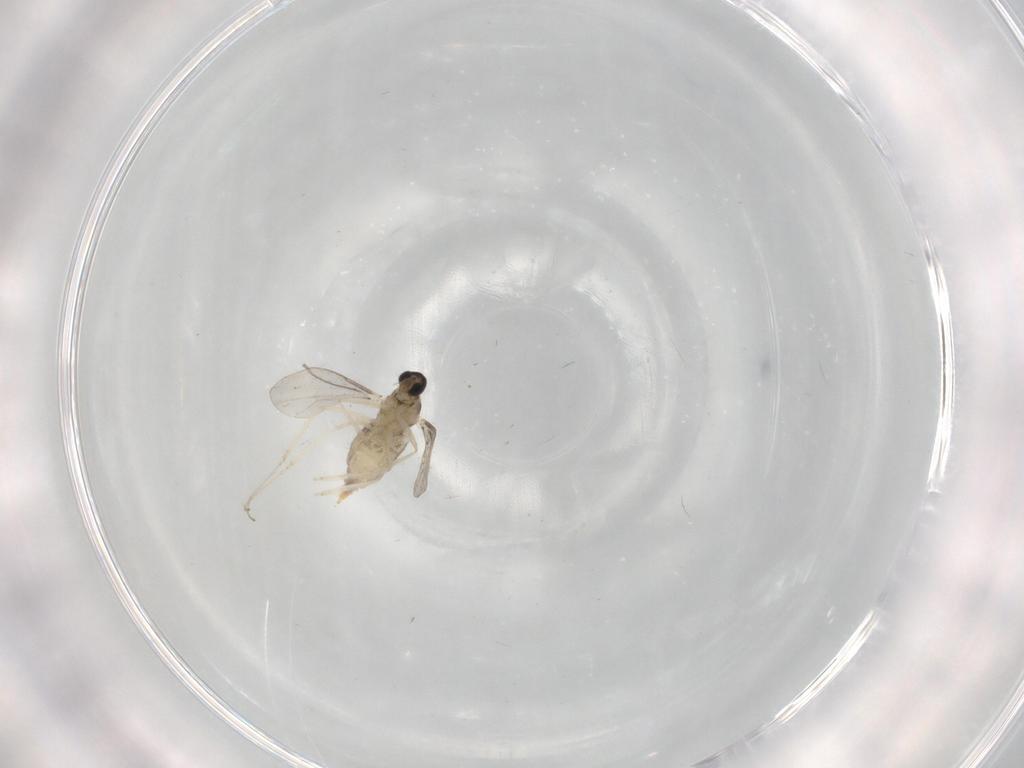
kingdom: Animalia
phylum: Arthropoda
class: Insecta
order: Diptera
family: Cecidomyiidae
